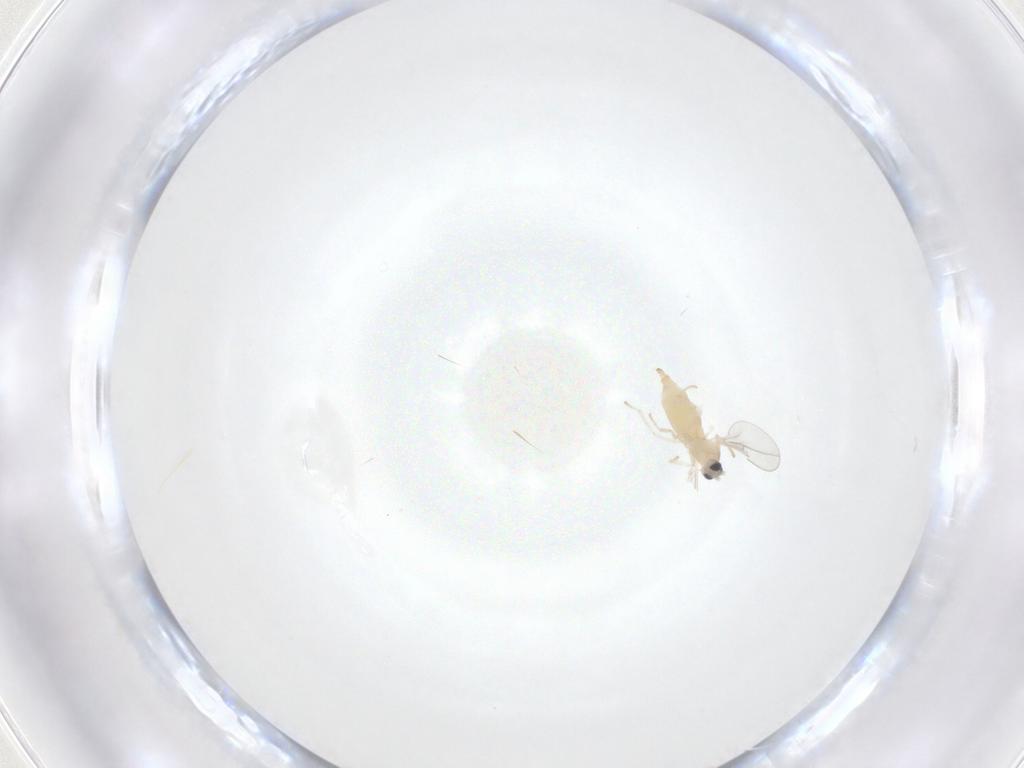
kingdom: Animalia
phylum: Arthropoda
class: Insecta
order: Diptera
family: Cecidomyiidae
